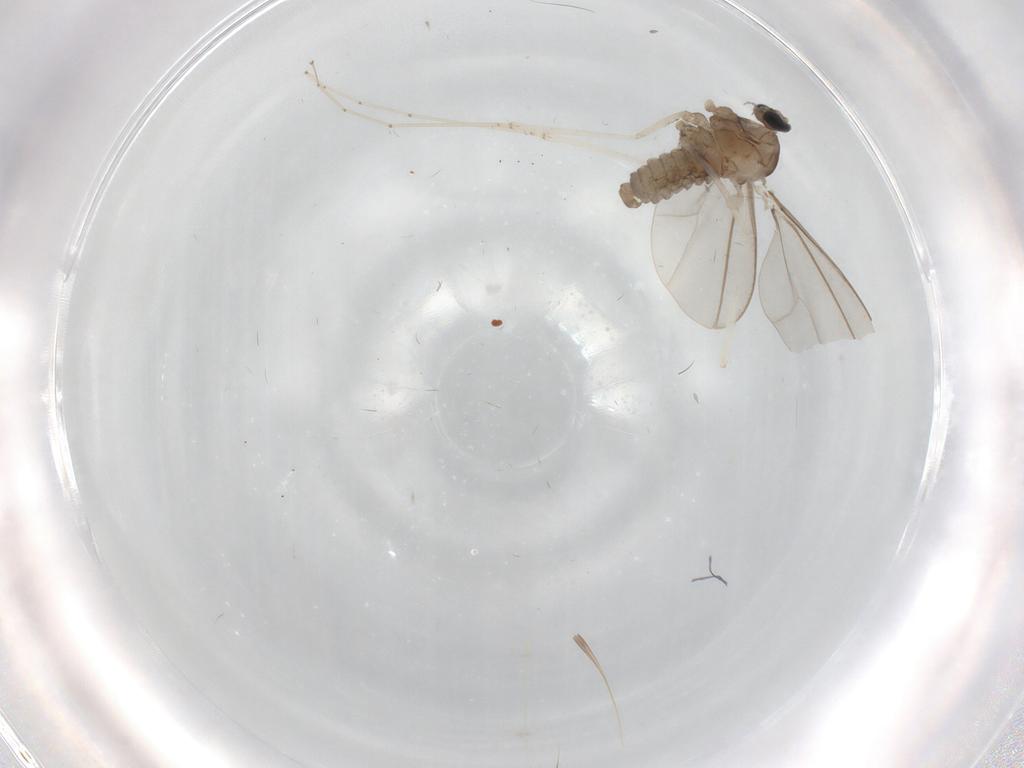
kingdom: Animalia
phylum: Arthropoda
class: Insecta
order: Diptera
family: Cecidomyiidae
